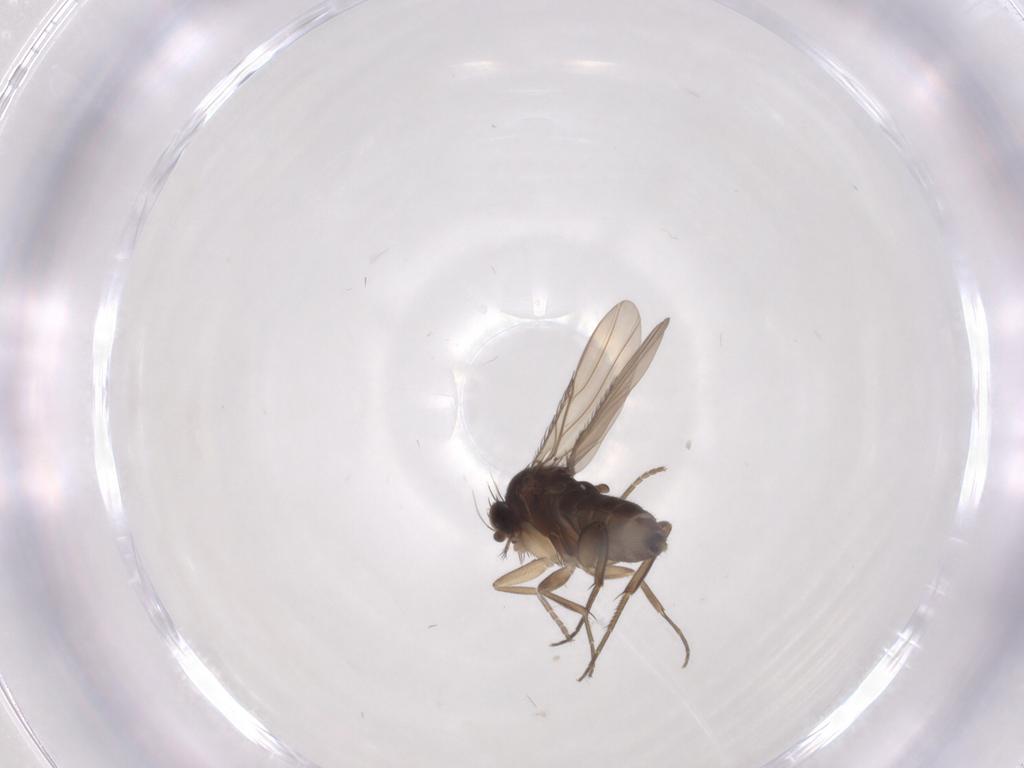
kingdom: Animalia
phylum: Arthropoda
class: Insecta
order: Diptera
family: Phoridae
